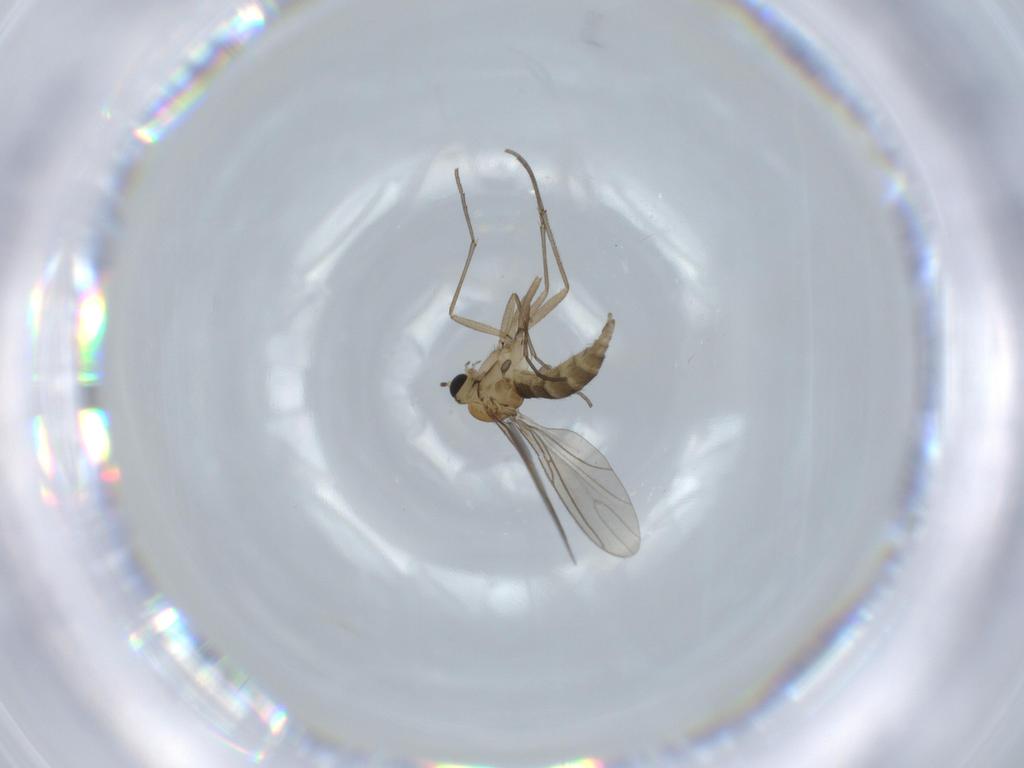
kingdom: Animalia
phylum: Arthropoda
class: Insecta
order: Diptera
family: Sciaridae
